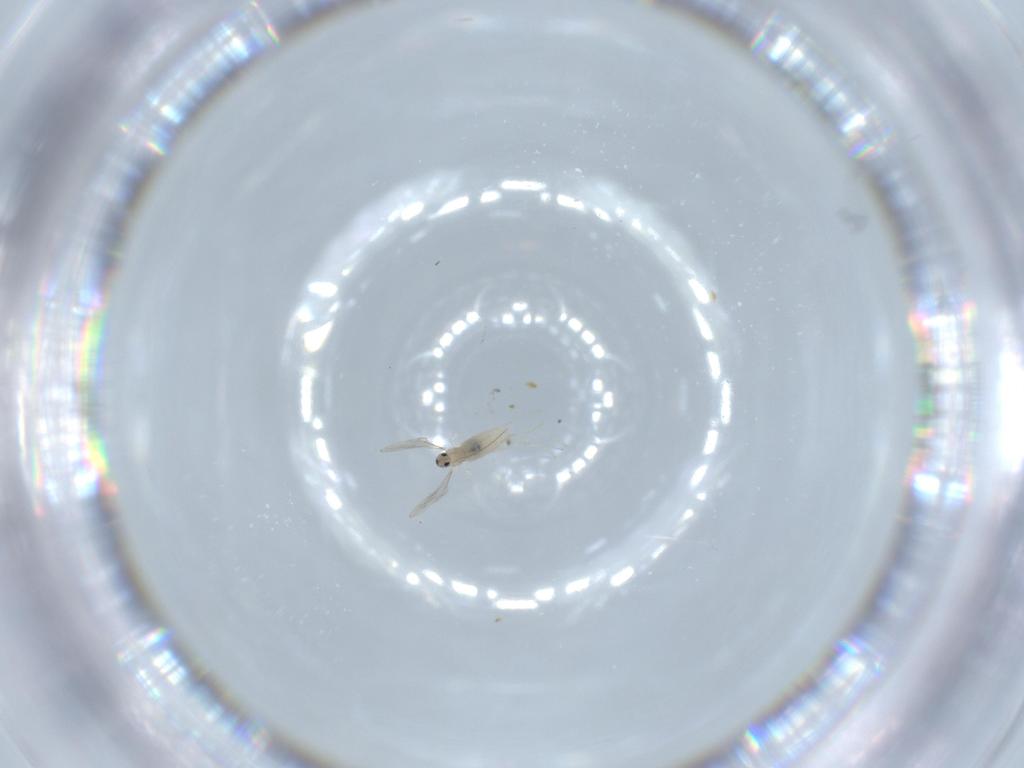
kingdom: Animalia
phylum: Arthropoda
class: Insecta
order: Diptera
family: Cecidomyiidae
